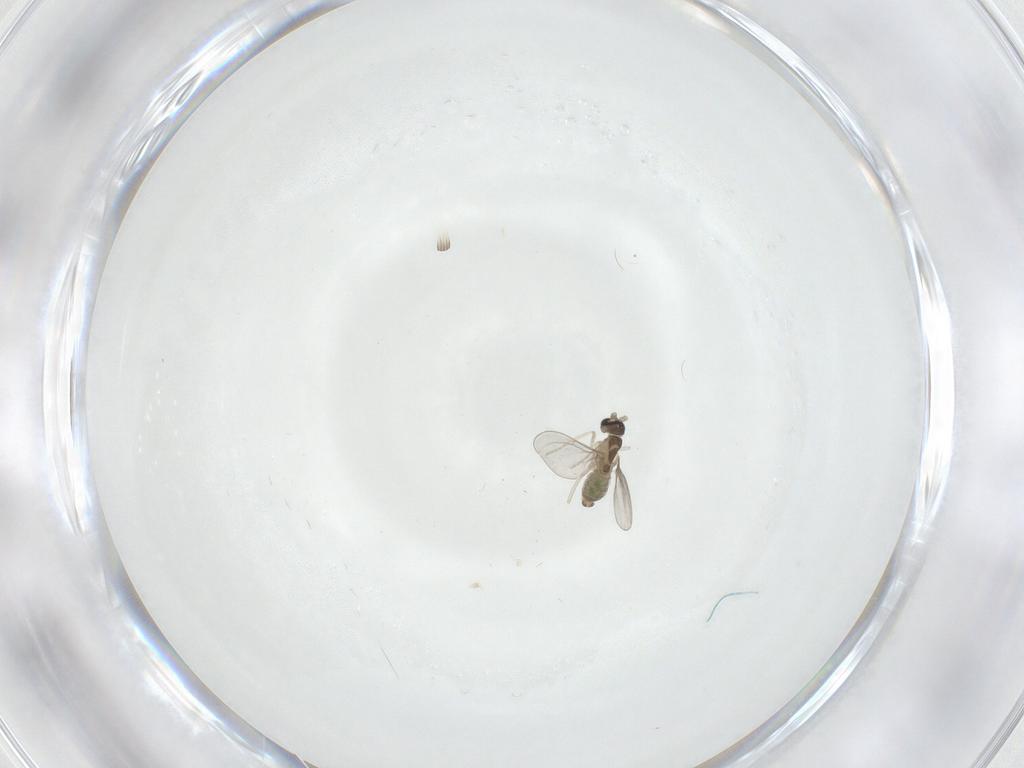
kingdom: Animalia
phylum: Arthropoda
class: Insecta
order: Diptera
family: Cecidomyiidae
